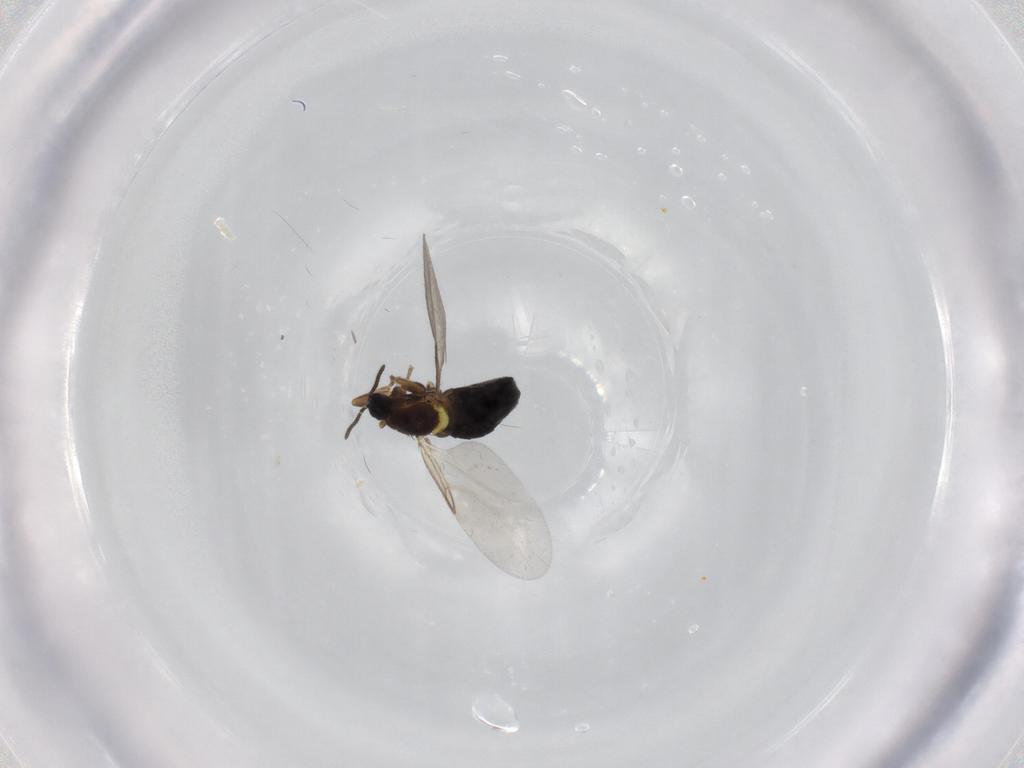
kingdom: Animalia
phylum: Arthropoda
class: Insecta
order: Diptera
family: Scatopsidae
